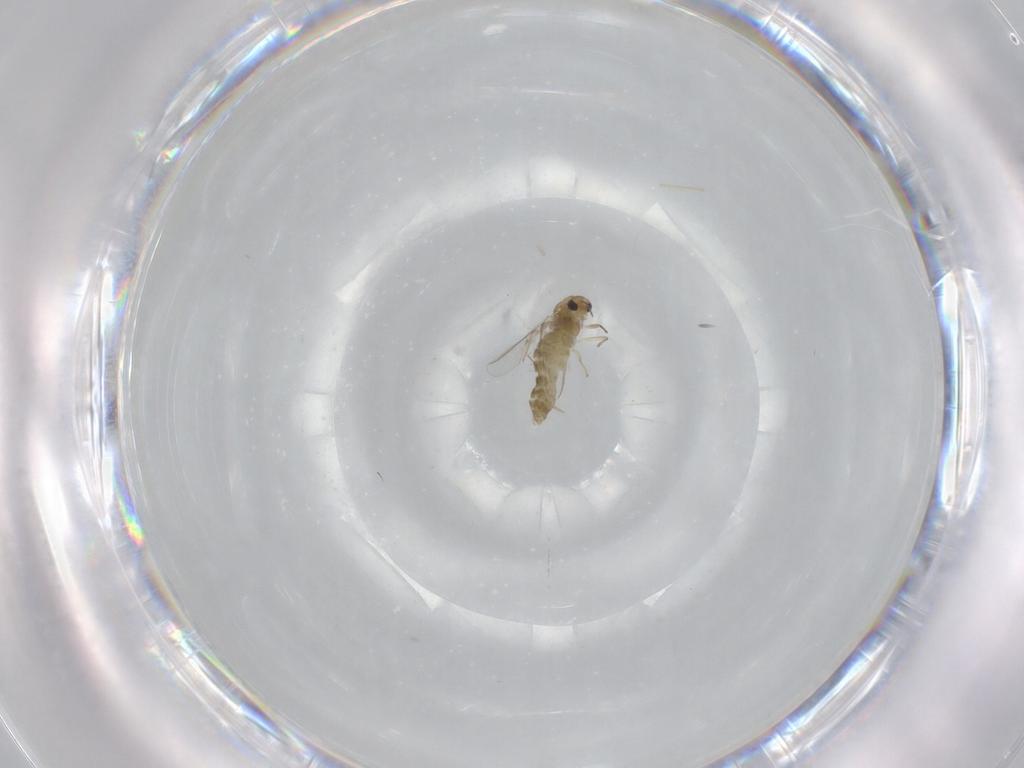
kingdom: Animalia
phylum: Arthropoda
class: Insecta
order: Diptera
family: Chironomidae
